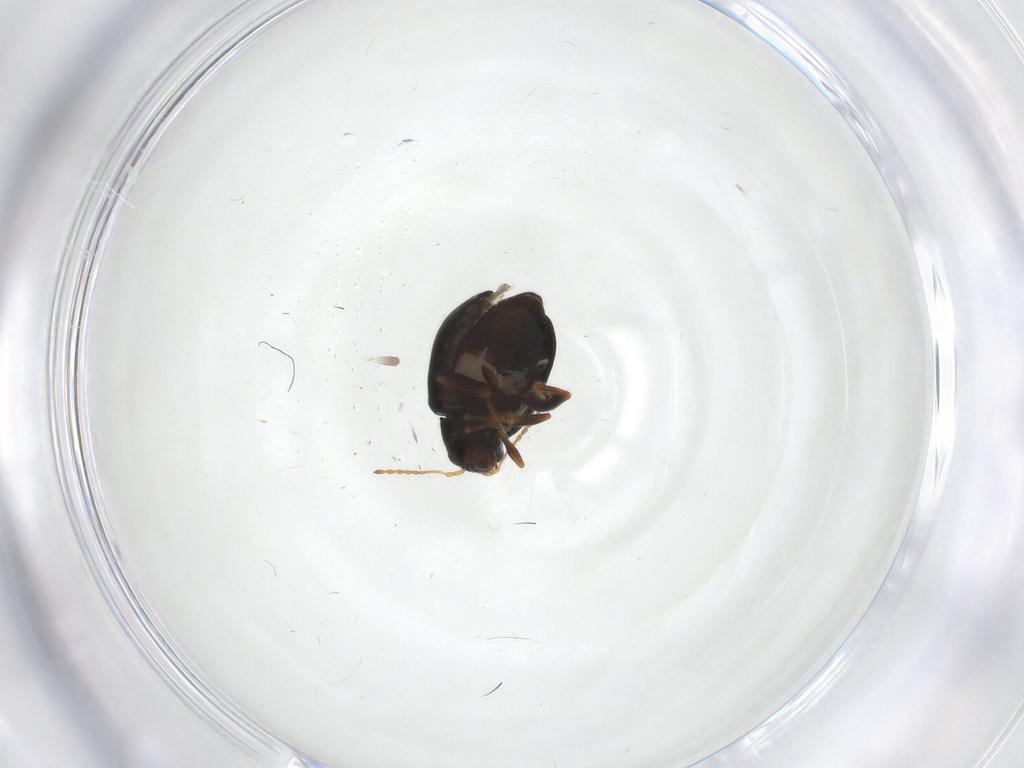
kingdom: Animalia
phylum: Arthropoda
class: Insecta
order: Coleoptera
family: Chrysomelidae
